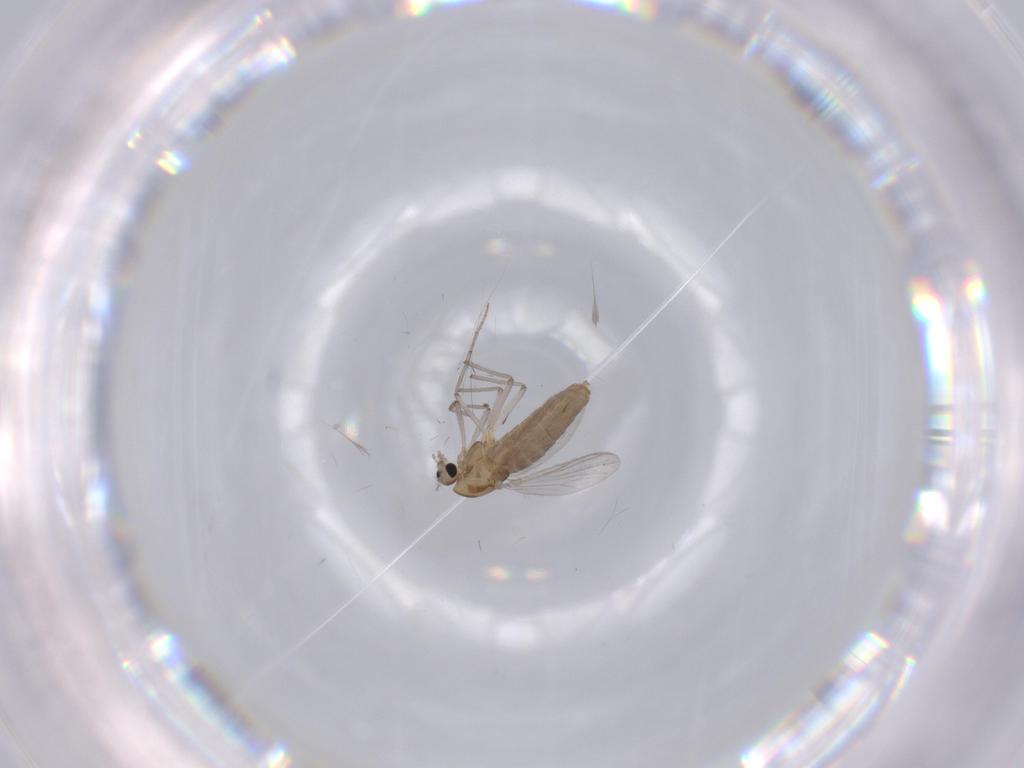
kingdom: Animalia
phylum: Arthropoda
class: Insecta
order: Diptera
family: Chironomidae
